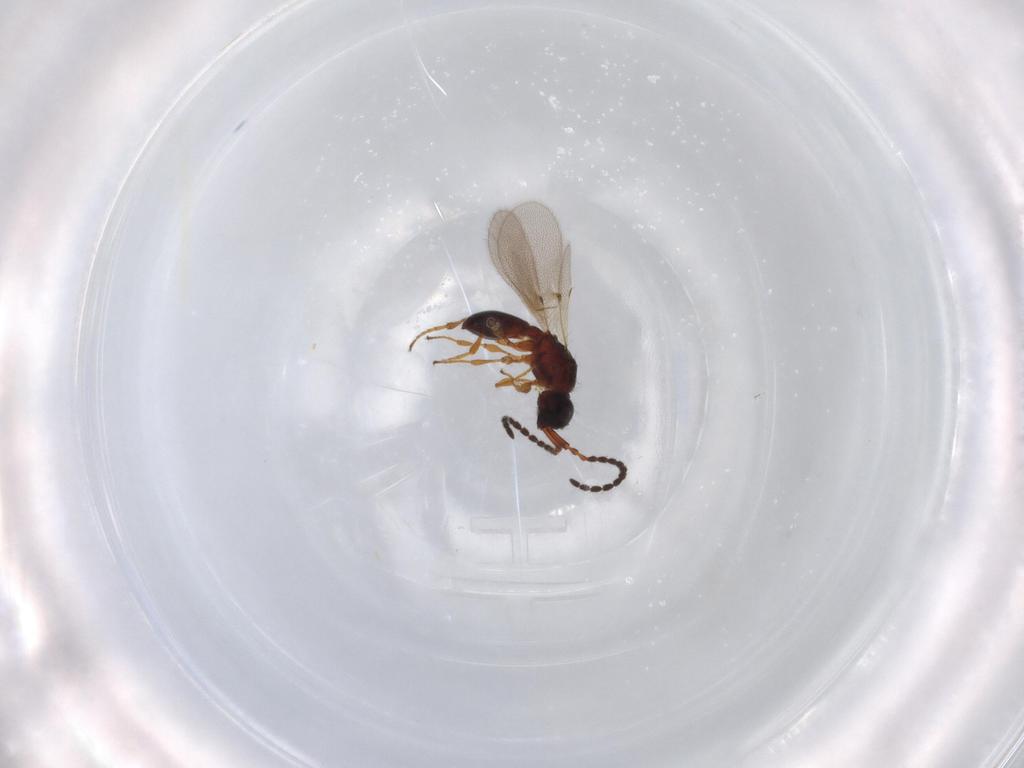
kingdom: Animalia
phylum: Arthropoda
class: Insecta
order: Hymenoptera
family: Diapriidae
